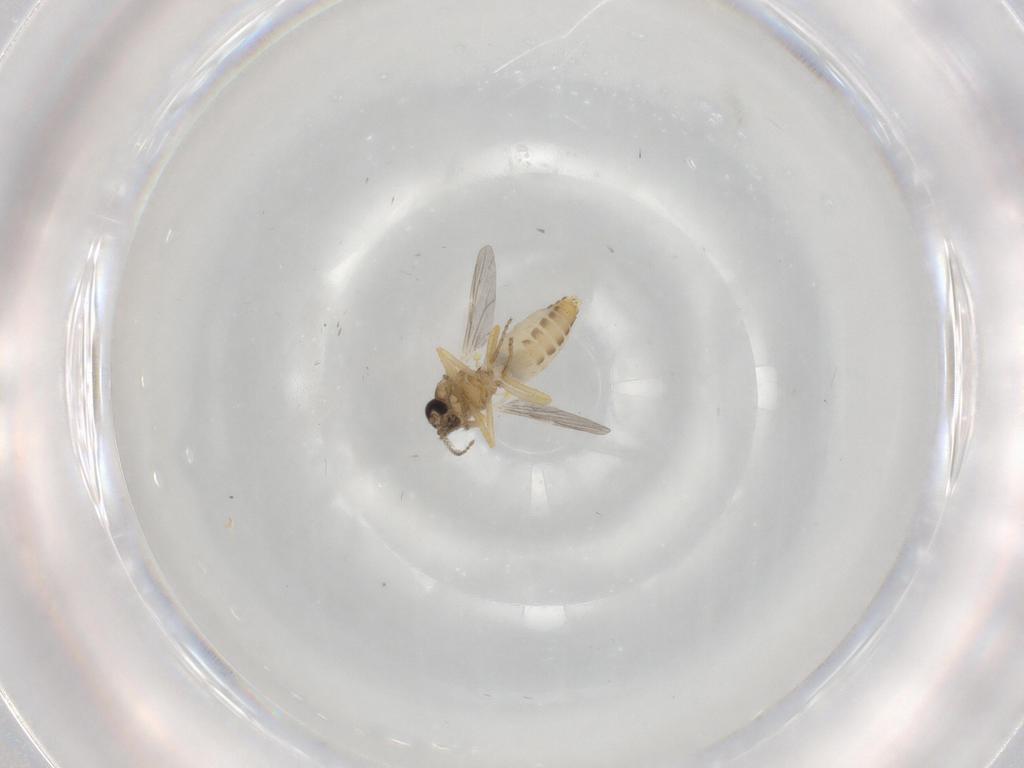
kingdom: Animalia
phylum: Arthropoda
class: Insecta
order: Diptera
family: Ceratopogonidae
